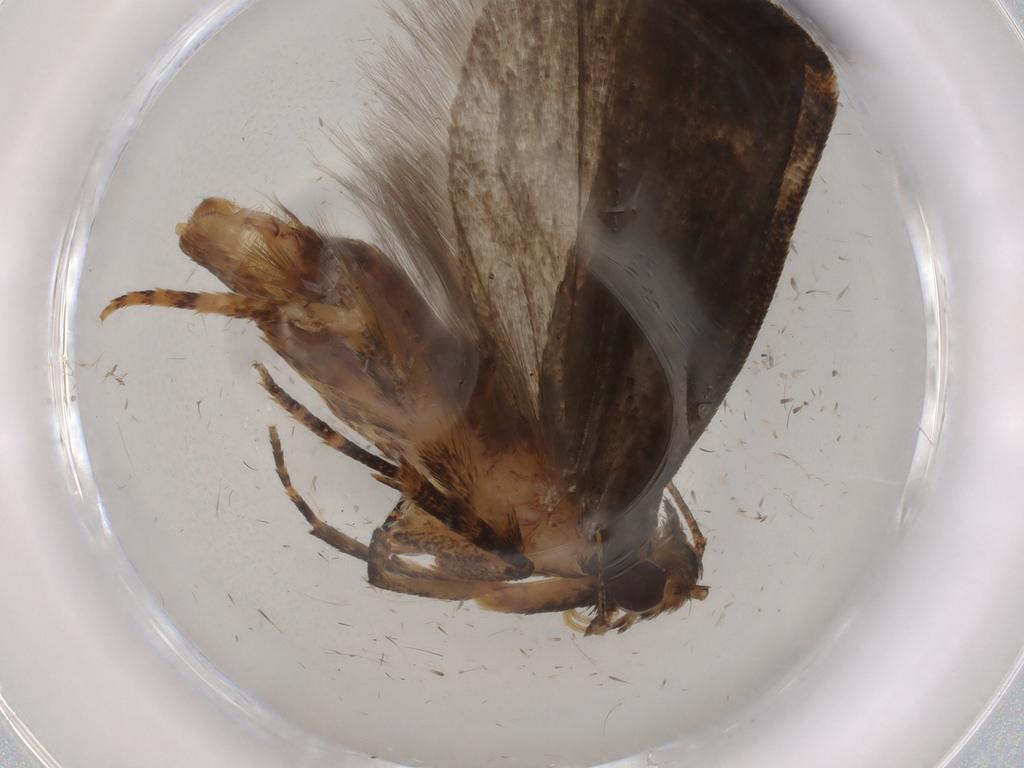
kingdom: Animalia
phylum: Arthropoda
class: Insecta
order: Lepidoptera
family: Gelechiidae
